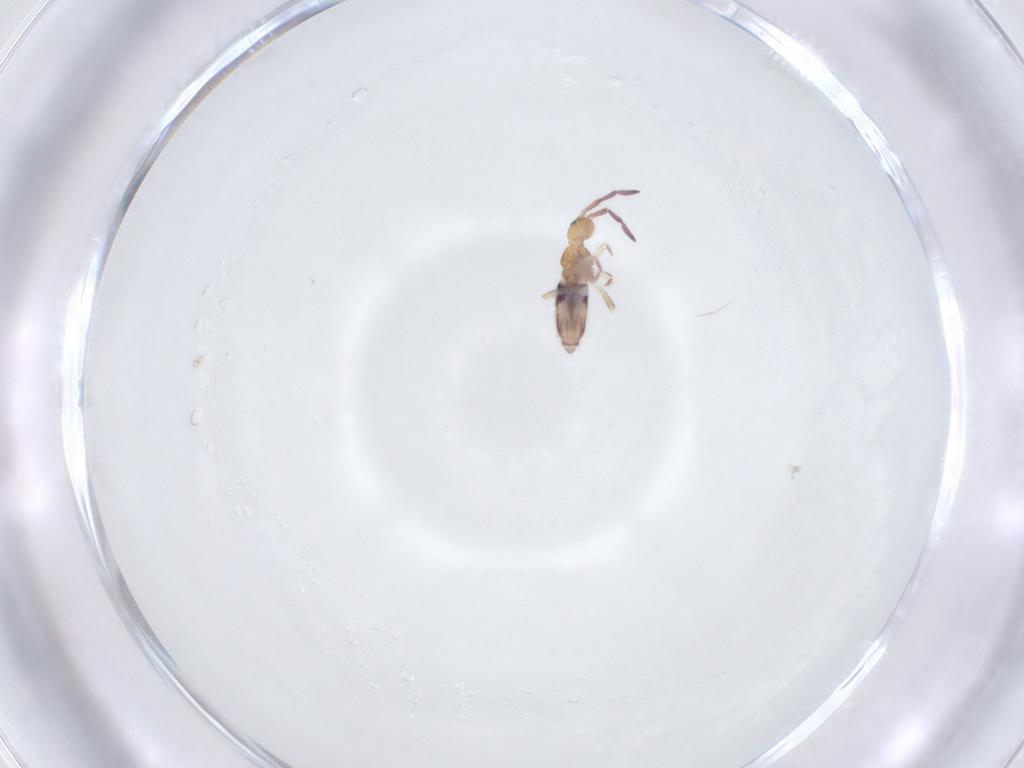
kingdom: Animalia
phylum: Arthropoda
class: Collembola
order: Entomobryomorpha
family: Entomobryidae
